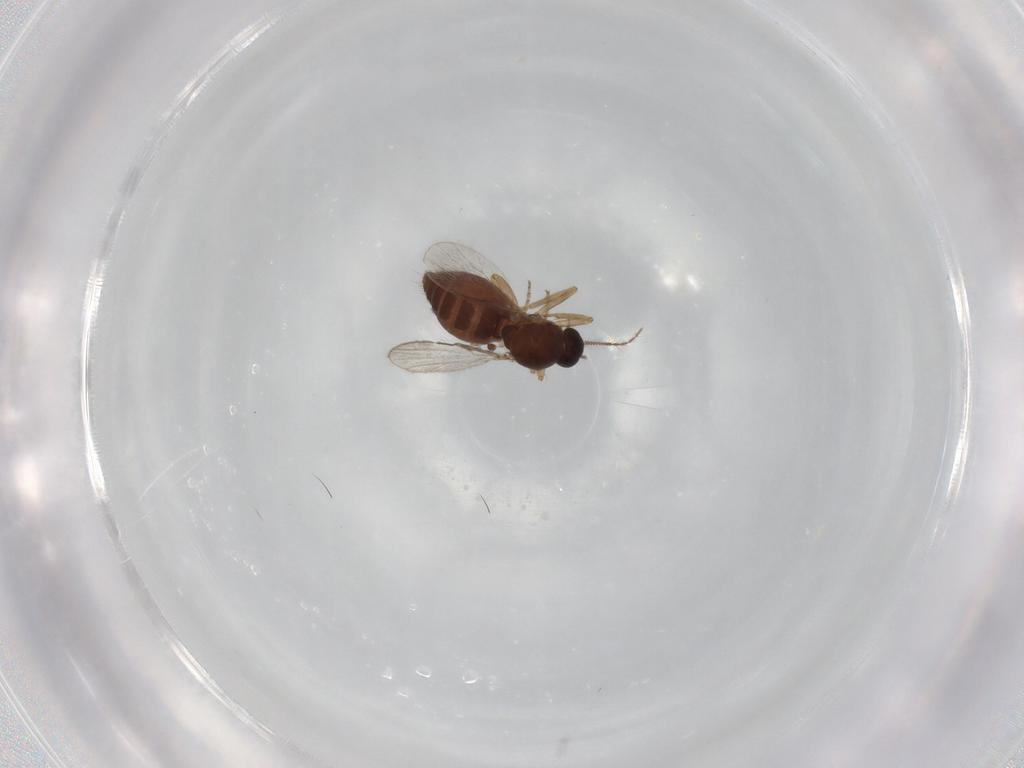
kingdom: Animalia
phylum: Arthropoda
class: Insecta
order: Diptera
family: Ceratopogonidae
